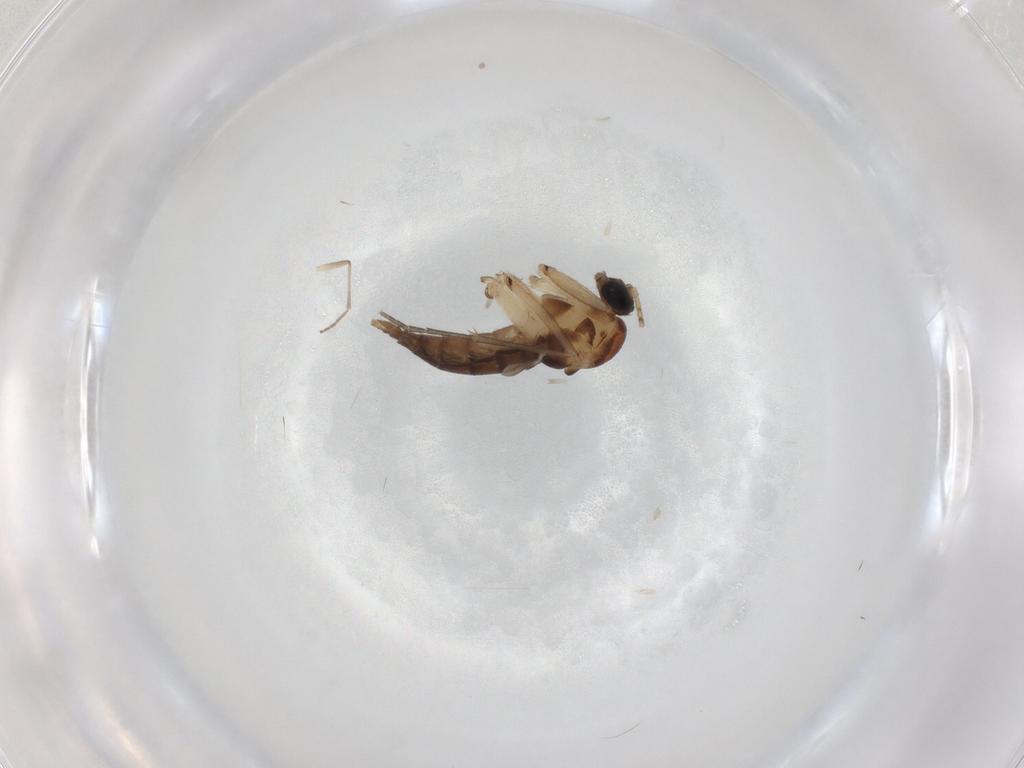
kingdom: Animalia
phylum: Arthropoda
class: Insecta
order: Diptera
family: Sciaridae
